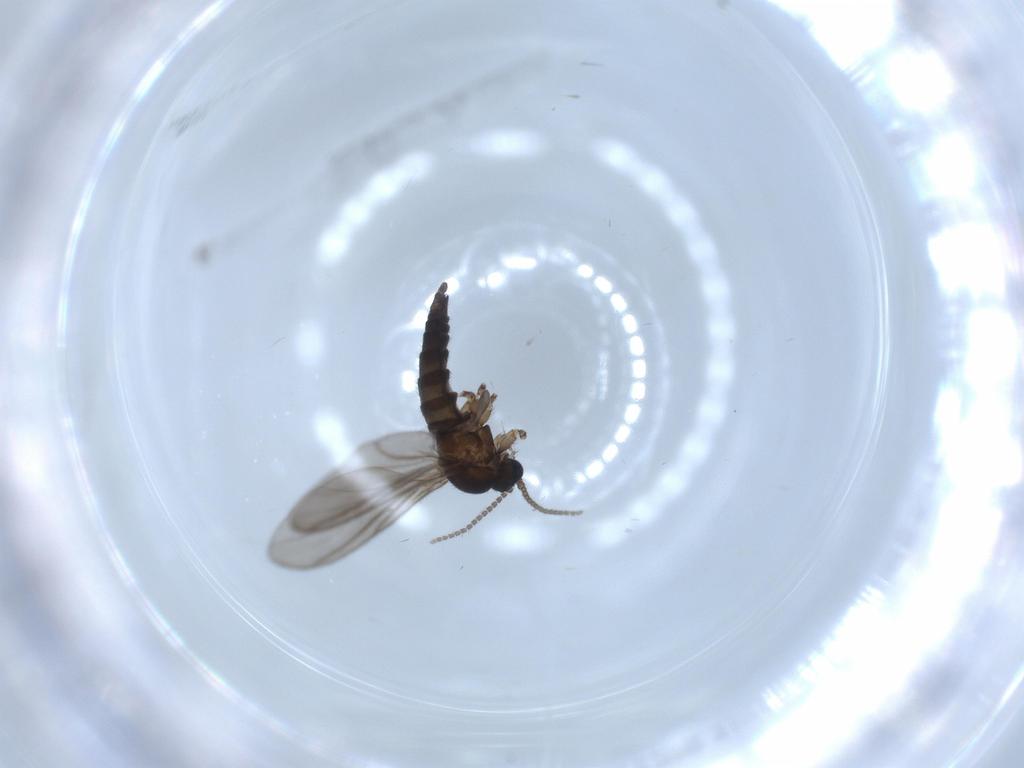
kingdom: Animalia
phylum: Arthropoda
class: Insecta
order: Diptera
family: Sciaridae
